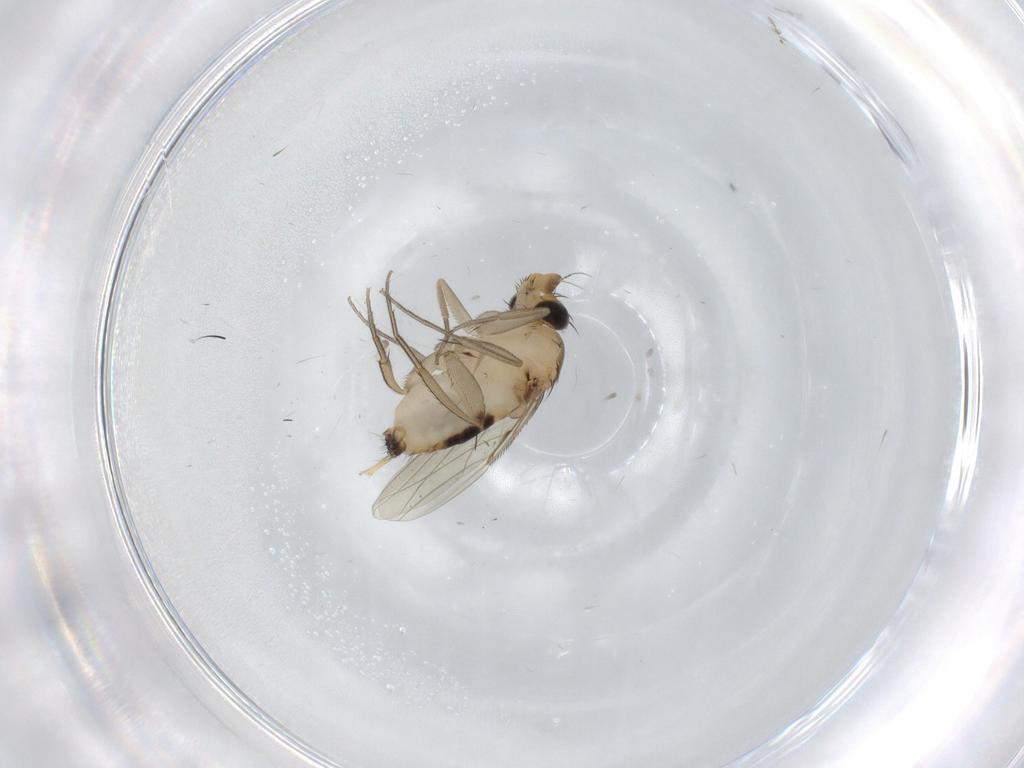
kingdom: Animalia
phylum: Arthropoda
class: Insecta
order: Diptera
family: Phoridae
